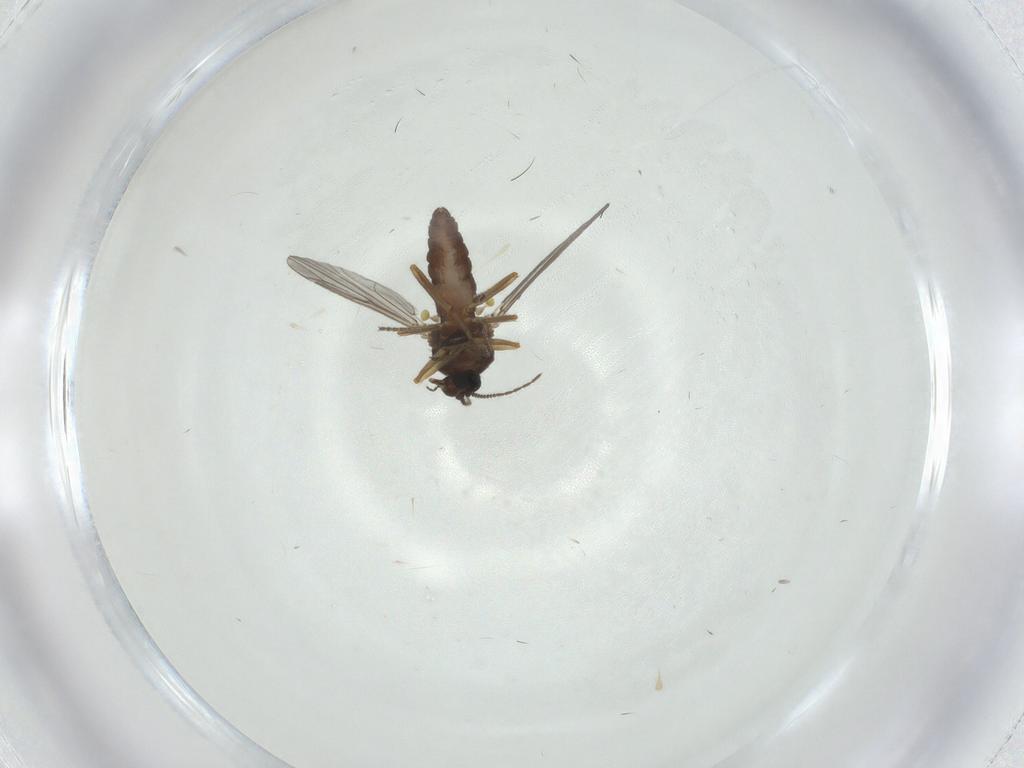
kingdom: Animalia
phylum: Arthropoda
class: Insecta
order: Diptera
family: Ceratopogonidae
